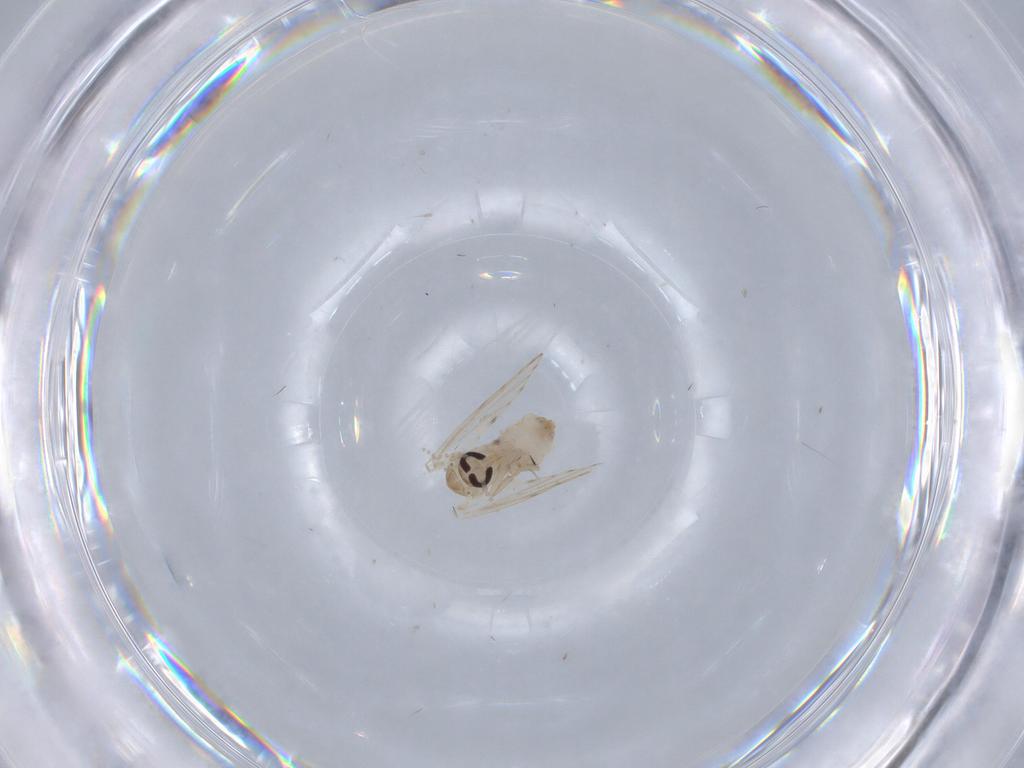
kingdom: Animalia
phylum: Arthropoda
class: Insecta
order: Diptera
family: Psychodidae
